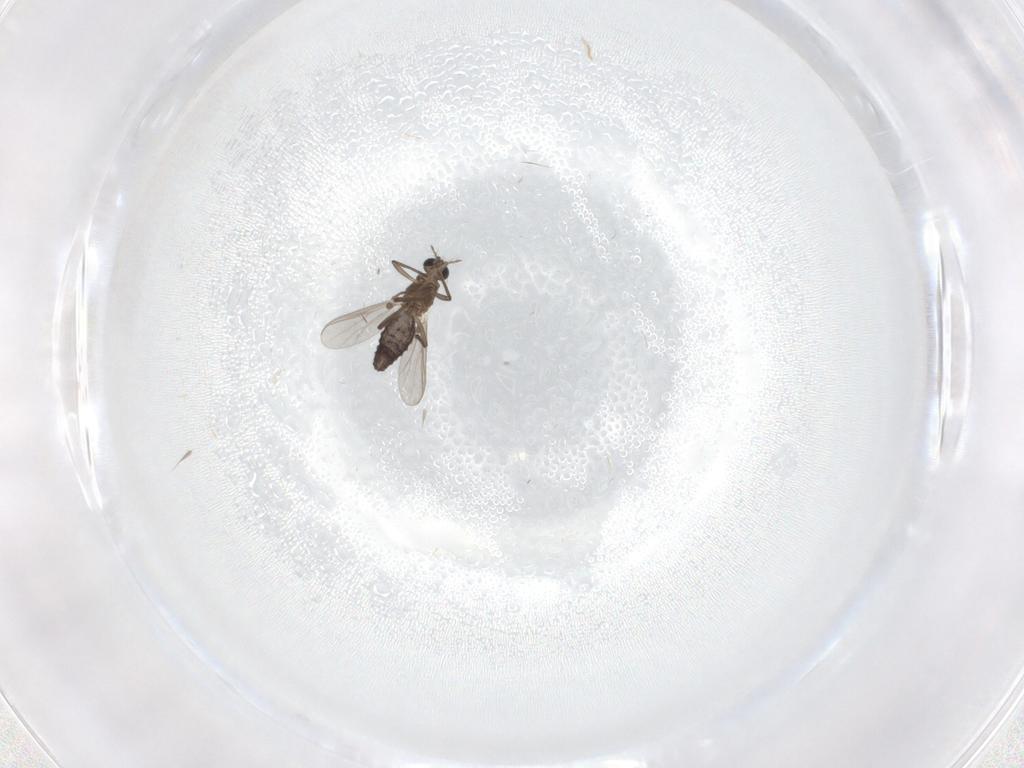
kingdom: Animalia
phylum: Arthropoda
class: Insecta
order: Diptera
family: Chironomidae
